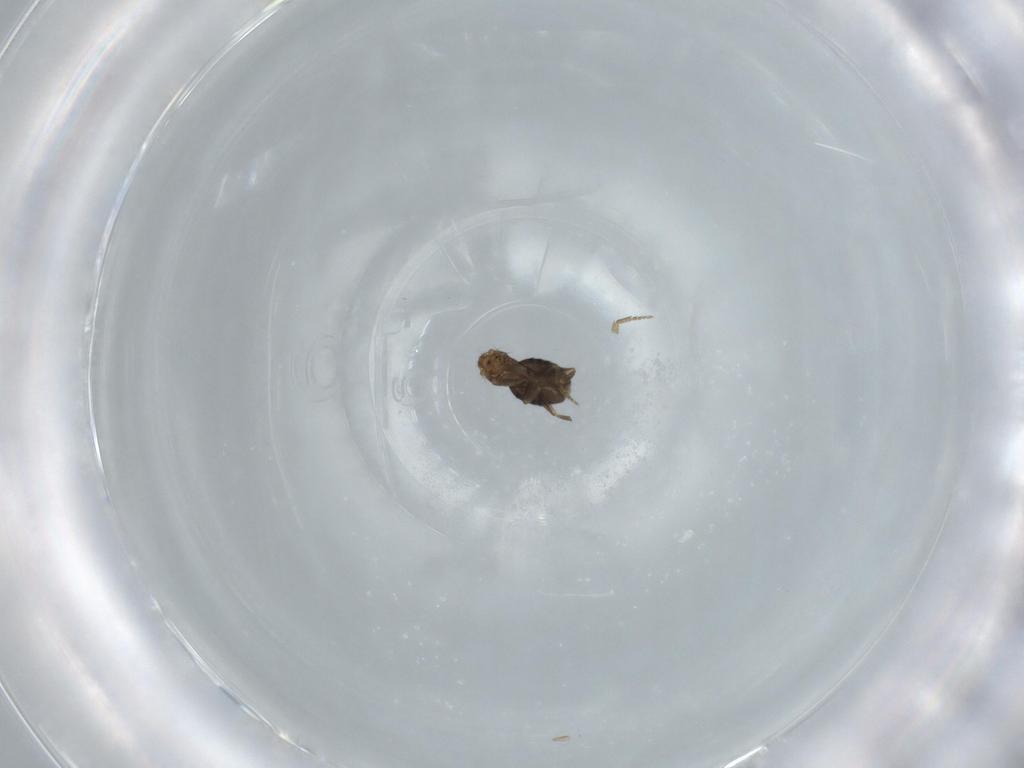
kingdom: Animalia
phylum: Arthropoda
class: Insecta
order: Diptera
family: Phoridae
